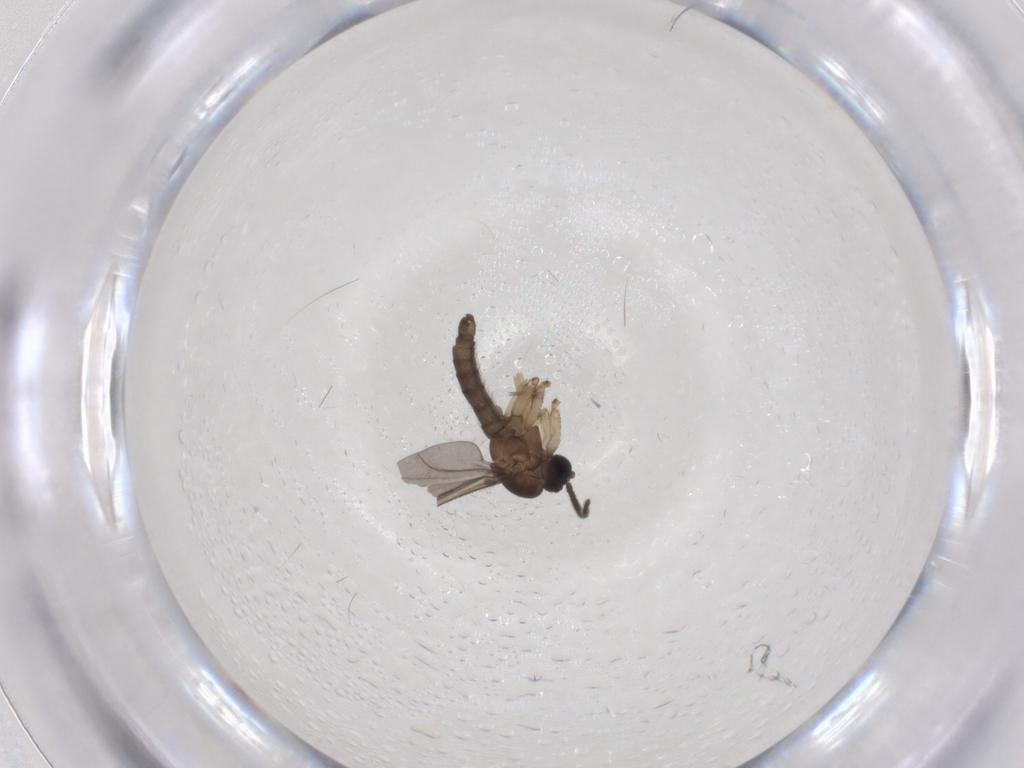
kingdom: Animalia
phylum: Arthropoda
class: Insecta
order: Diptera
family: Sciaridae
